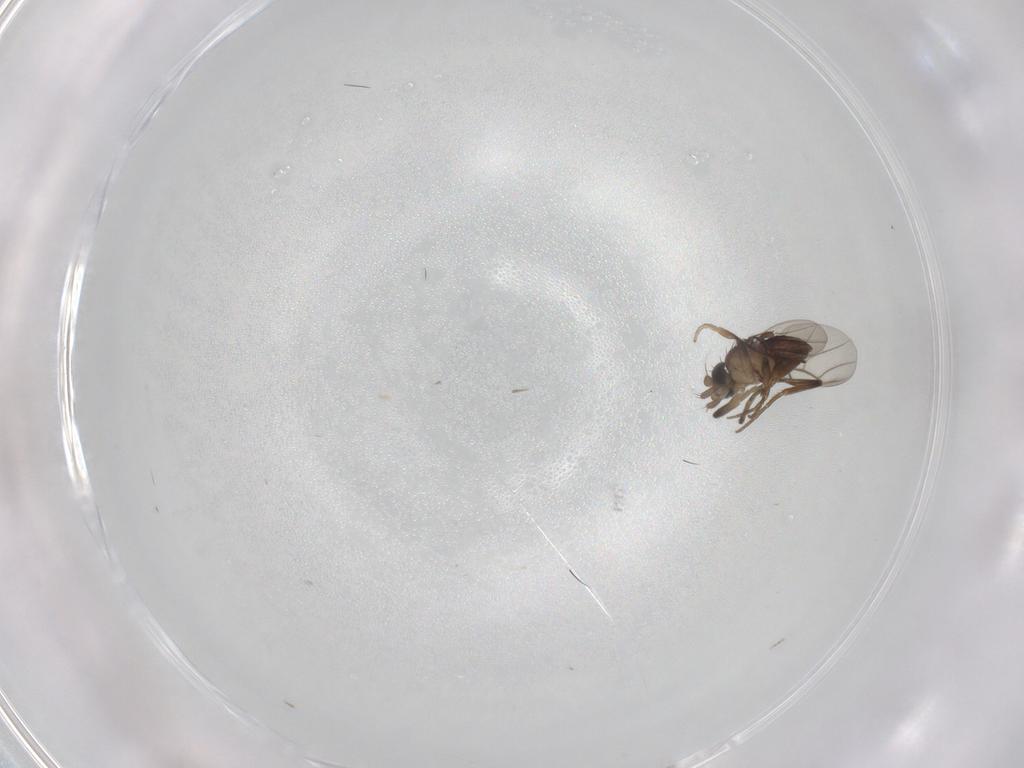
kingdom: Animalia
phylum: Arthropoda
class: Insecta
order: Diptera
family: Phoridae
